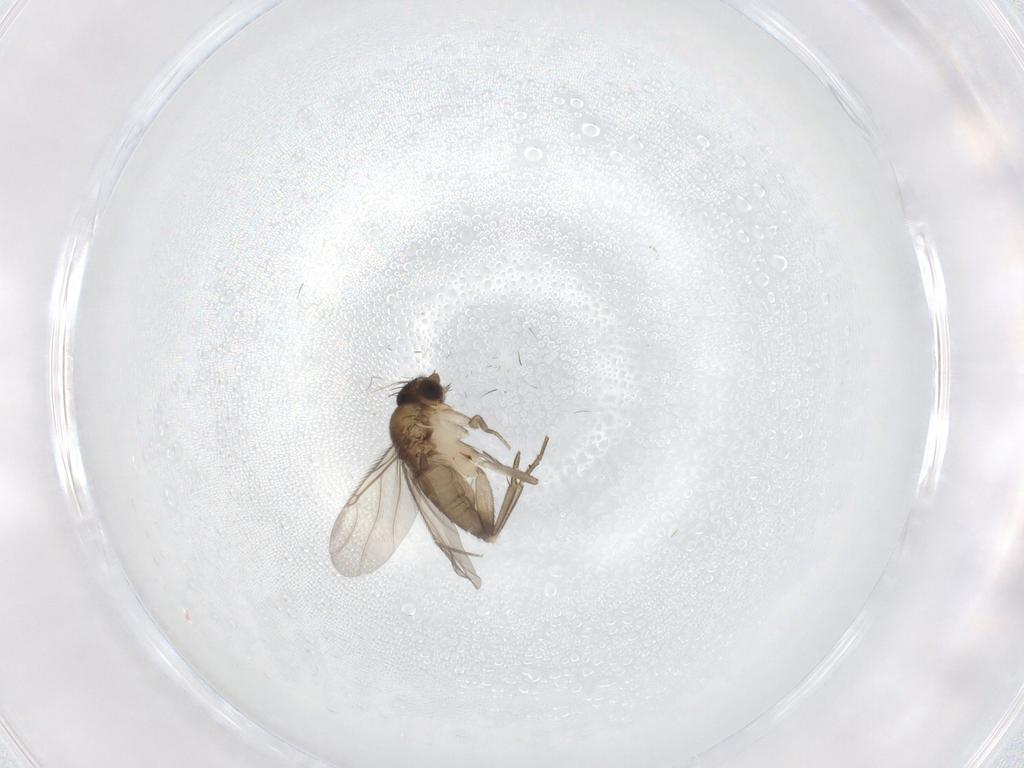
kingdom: Animalia
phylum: Arthropoda
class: Insecta
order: Diptera
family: Phoridae
